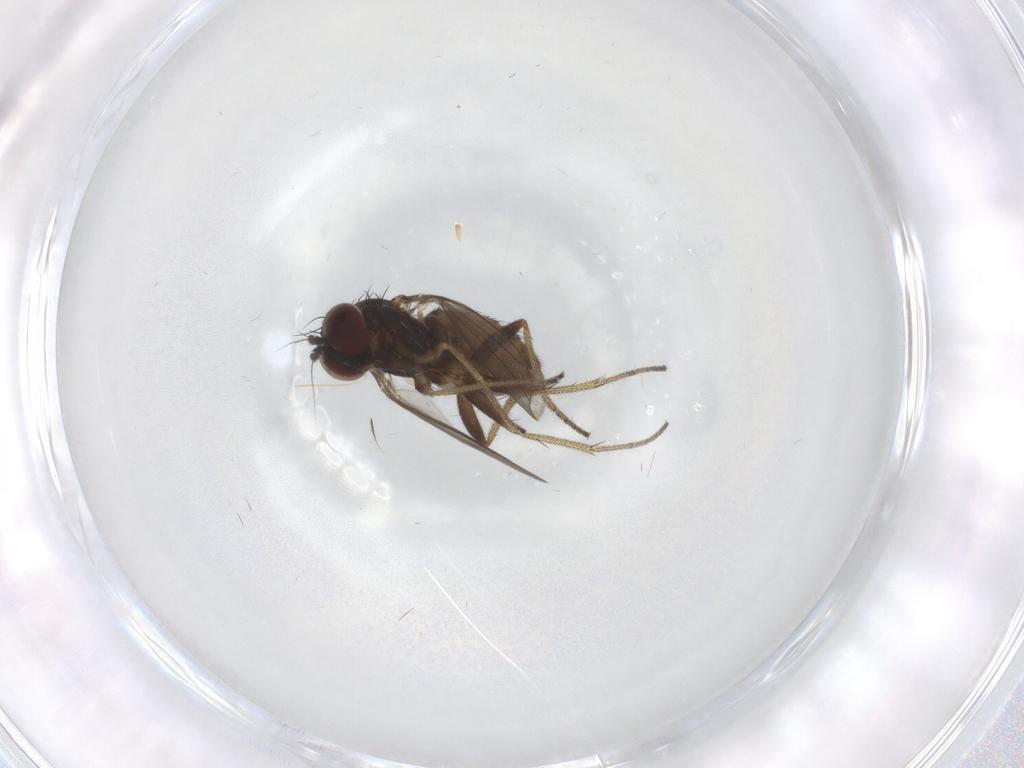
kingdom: Animalia
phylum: Arthropoda
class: Insecta
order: Diptera
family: Dolichopodidae
